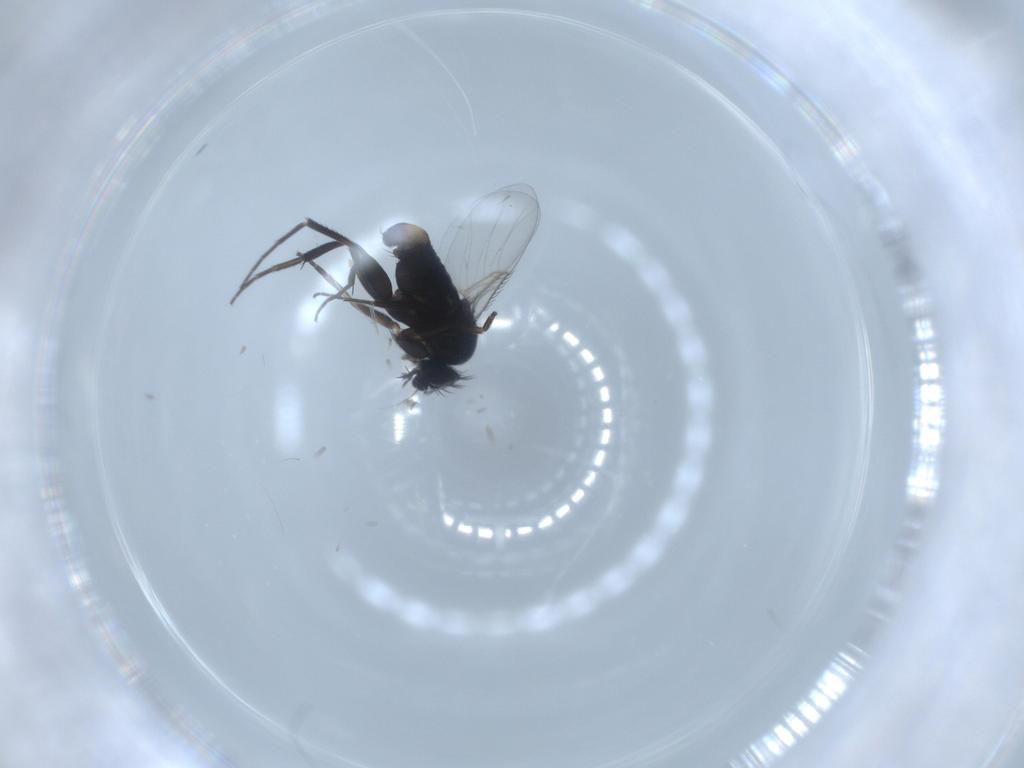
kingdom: Animalia
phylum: Arthropoda
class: Insecta
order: Diptera
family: Phoridae
